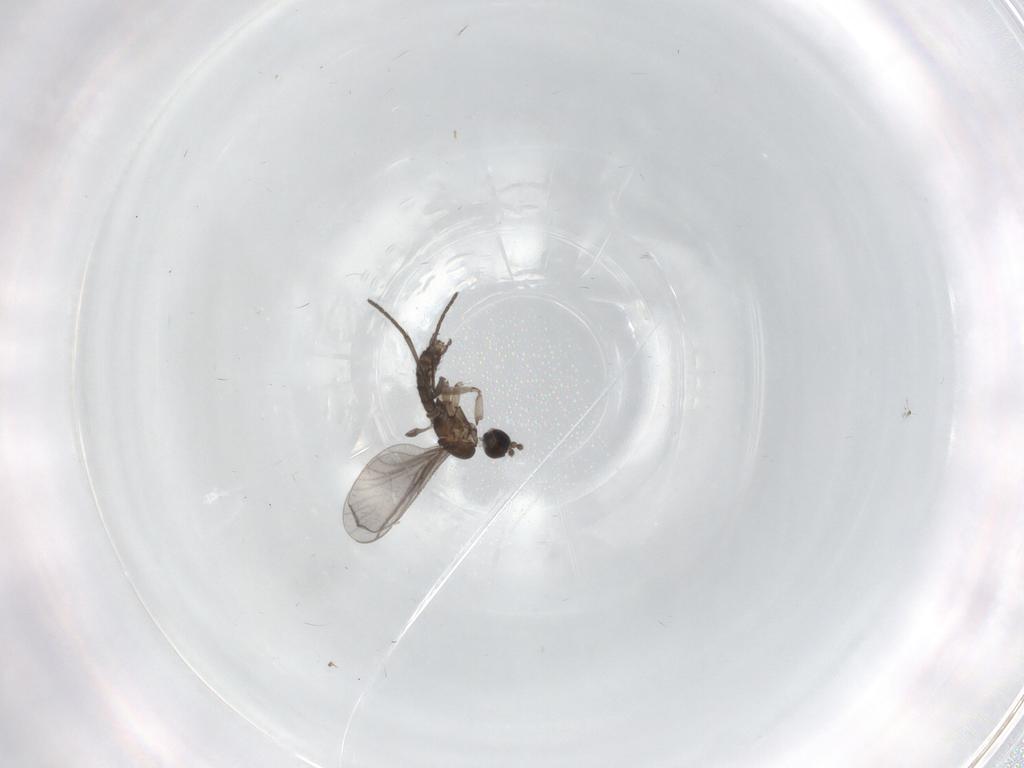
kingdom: Animalia
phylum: Arthropoda
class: Insecta
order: Diptera
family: Cecidomyiidae
